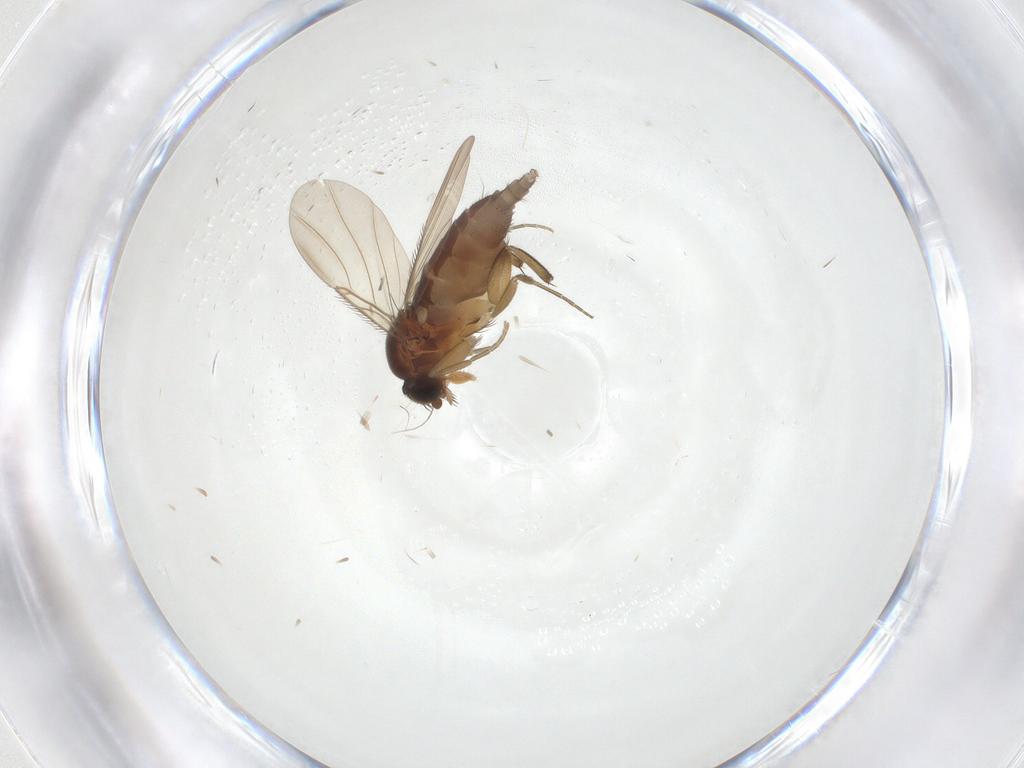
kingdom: Animalia
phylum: Arthropoda
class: Insecta
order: Diptera
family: Phoridae
